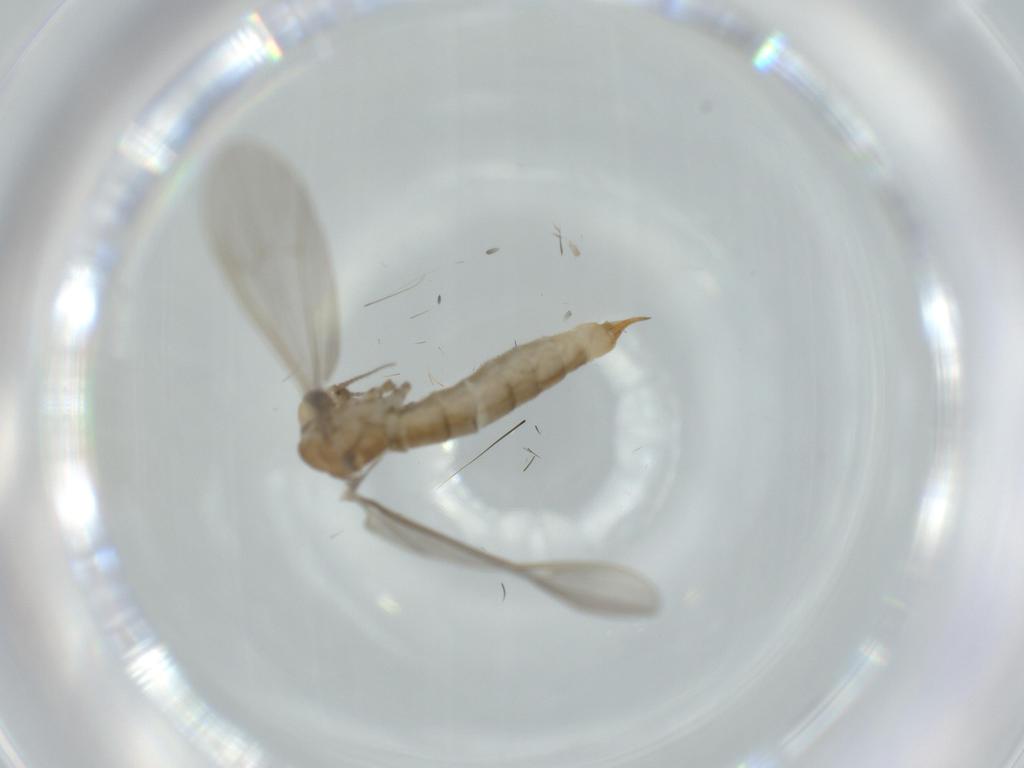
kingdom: Animalia
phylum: Arthropoda
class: Insecta
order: Diptera
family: Limoniidae
